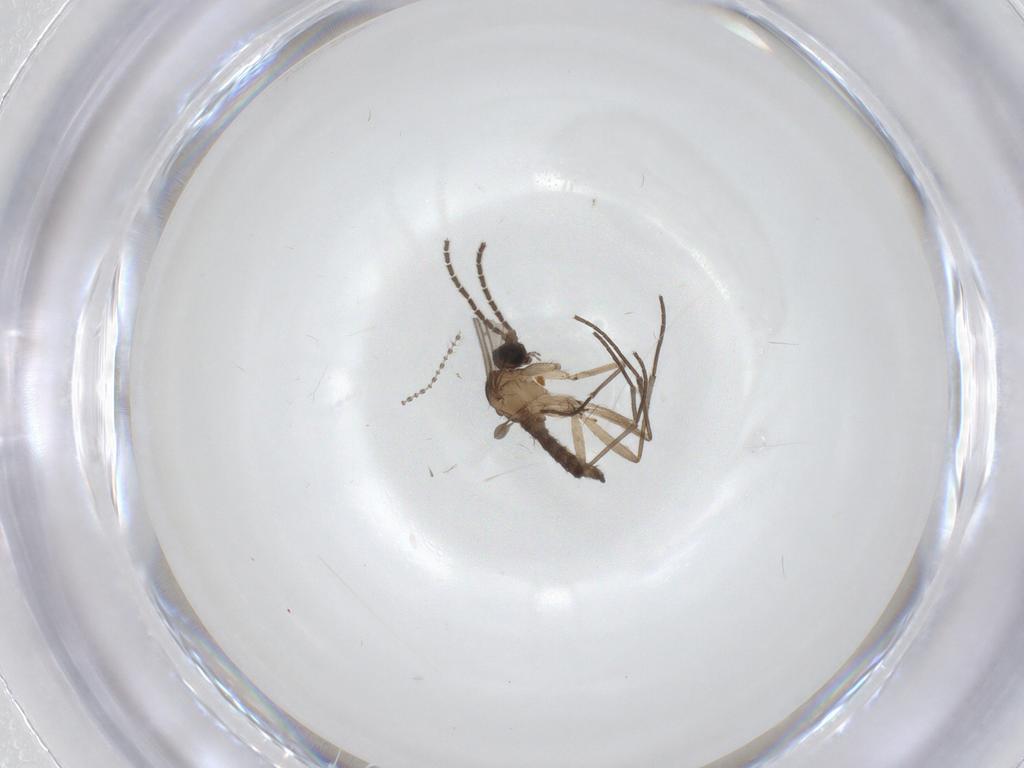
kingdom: Animalia
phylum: Arthropoda
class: Insecta
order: Diptera
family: Sciaridae
